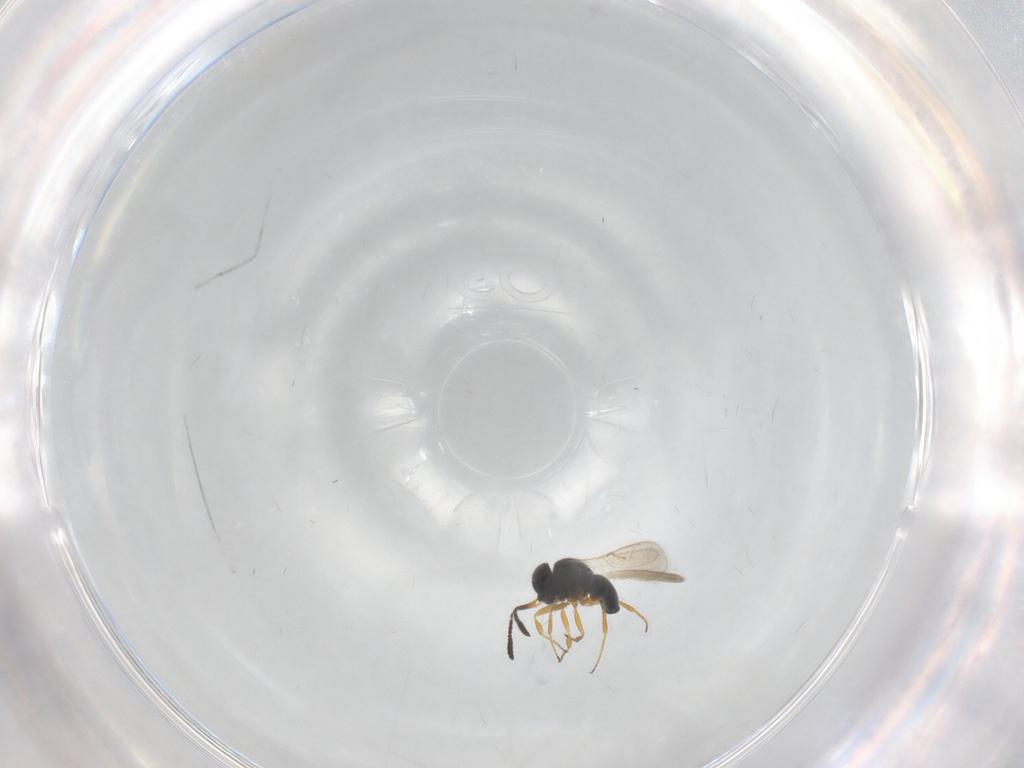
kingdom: Animalia
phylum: Arthropoda
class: Insecta
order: Hymenoptera
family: Scelionidae
